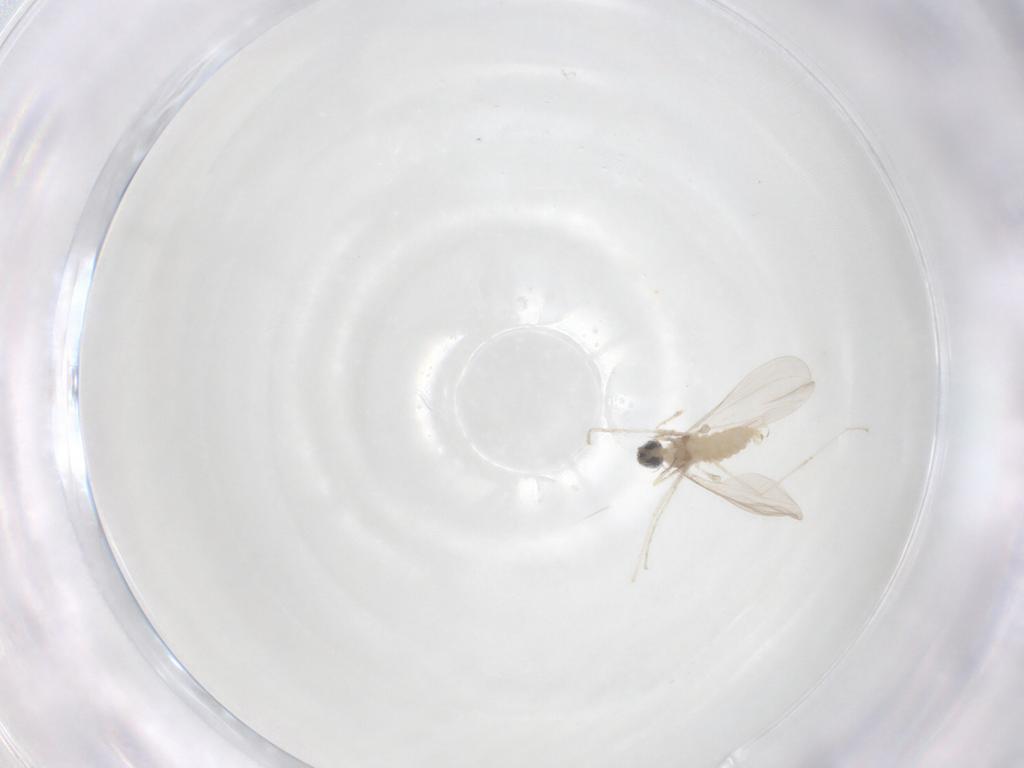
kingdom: Animalia
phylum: Arthropoda
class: Insecta
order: Diptera
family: Cecidomyiidae
